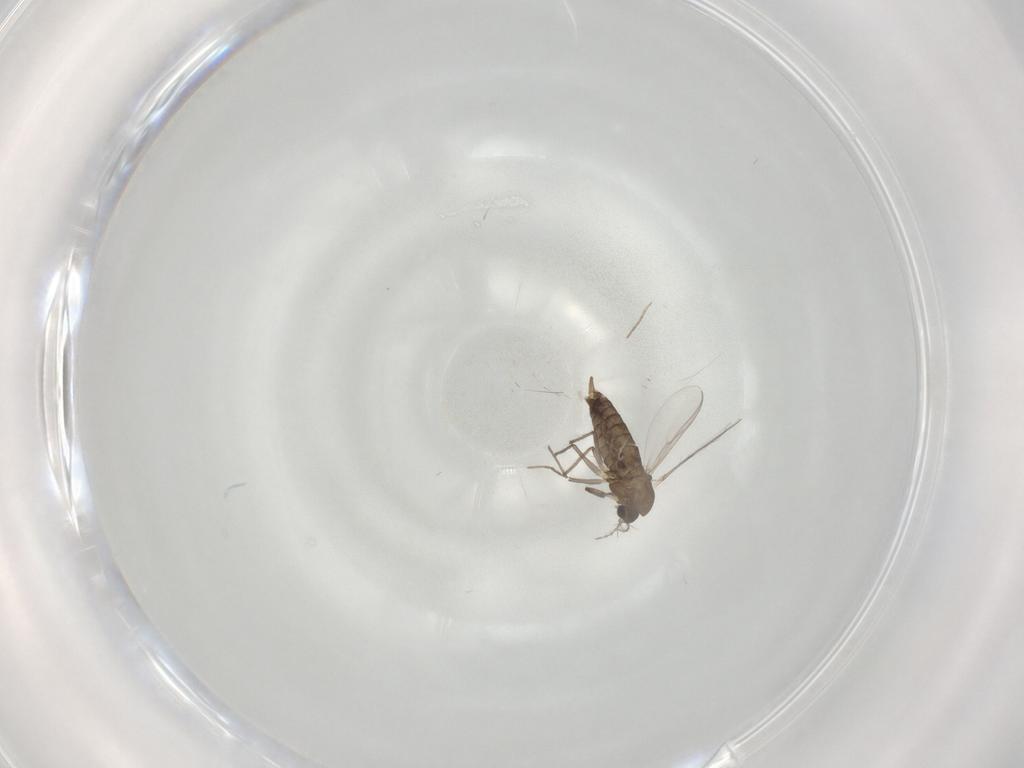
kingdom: Animalia
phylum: Arthropoda
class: Insecta
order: Diptera
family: Chironomidae
